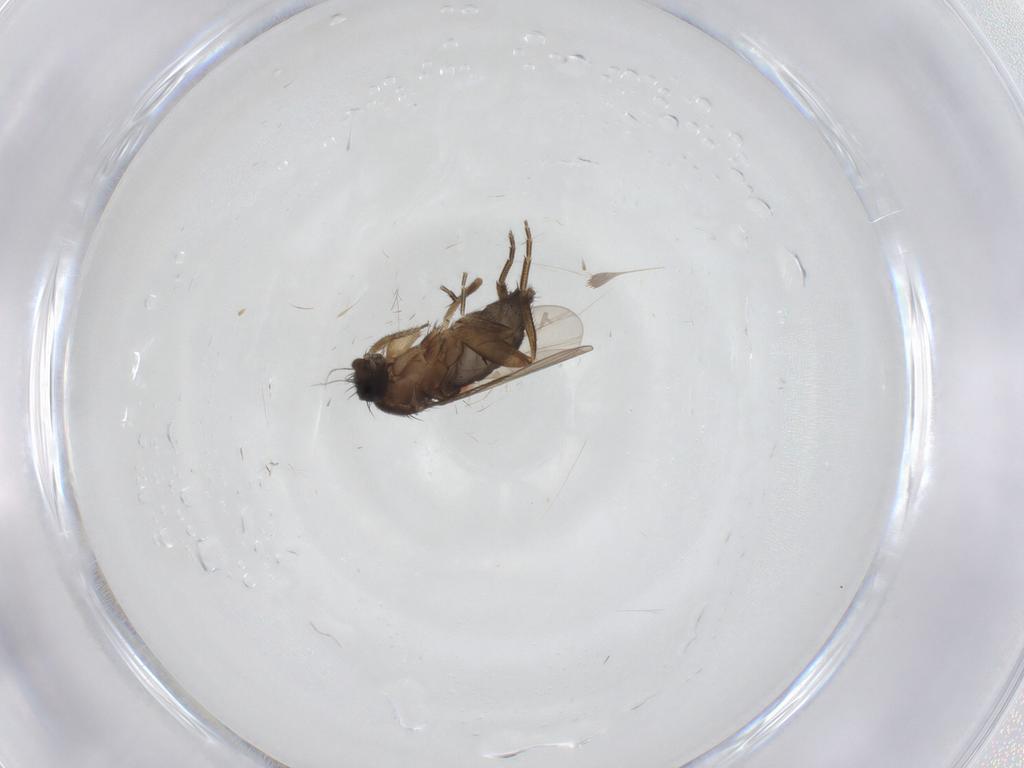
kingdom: Animalia
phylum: Arthropoda
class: Insecta
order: Diptera
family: Phoridae
